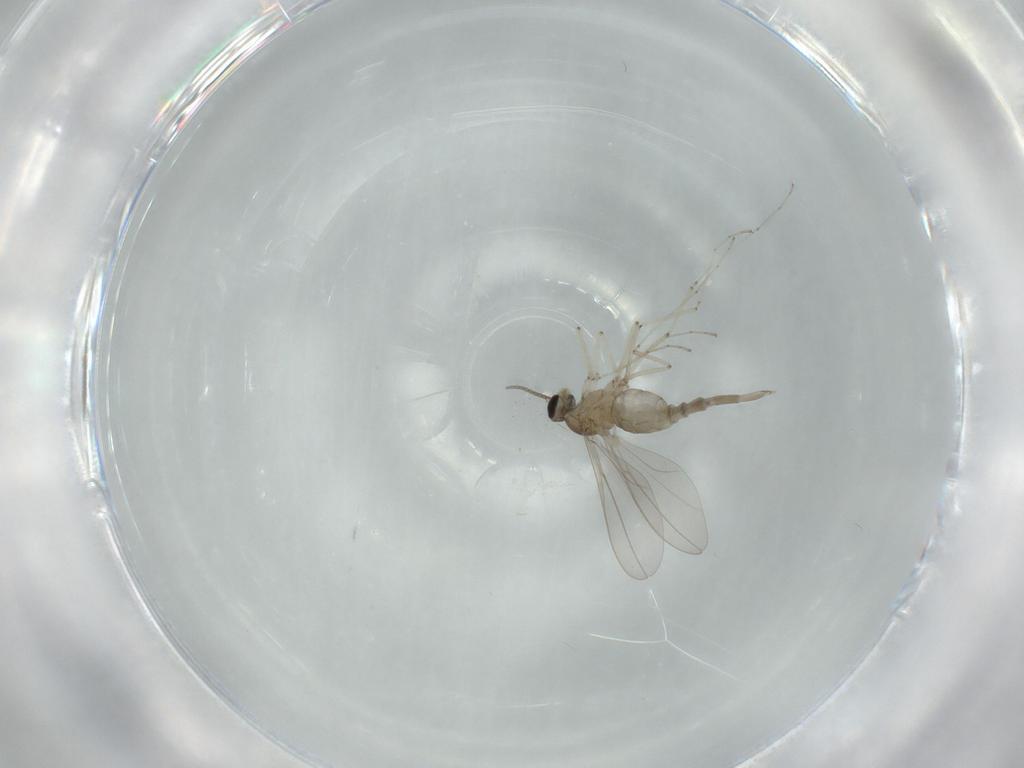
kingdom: Animalia
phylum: Arthropoda
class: Insecta
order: Diptera
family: Cecidomyiidae
